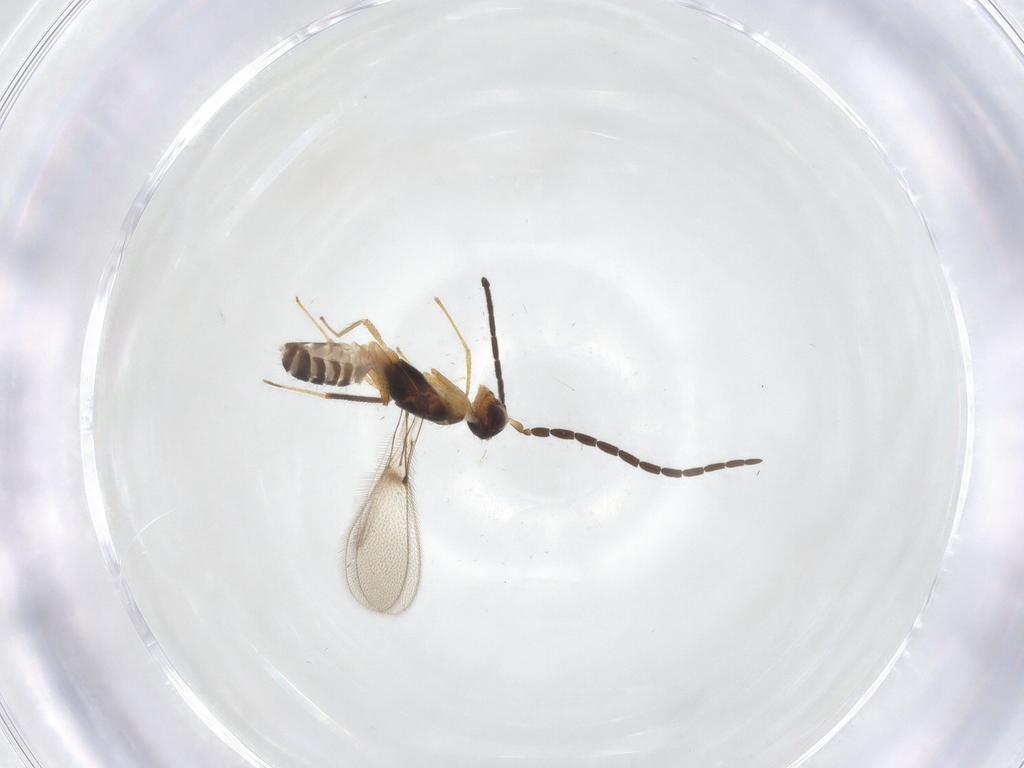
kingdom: Animalia
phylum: Arthropoda
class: Insecta
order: Hymenoptera
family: Eulophidae
